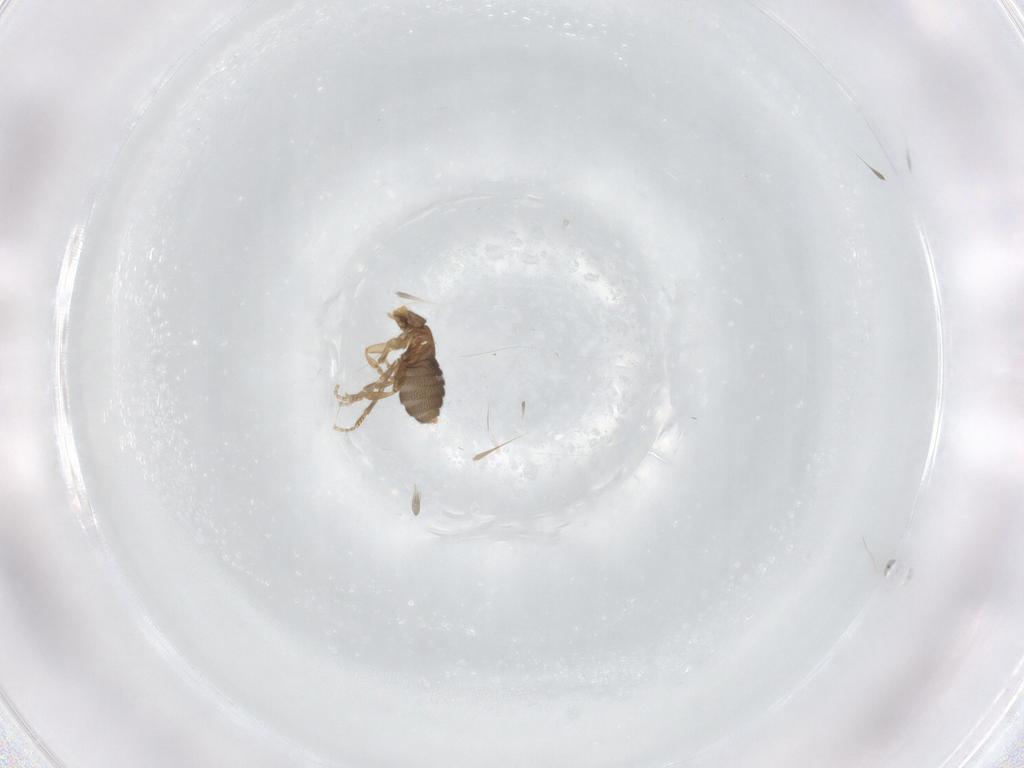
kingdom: Animalia
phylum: Arthropoda
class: Insecta
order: Diptera
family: Phoridae
